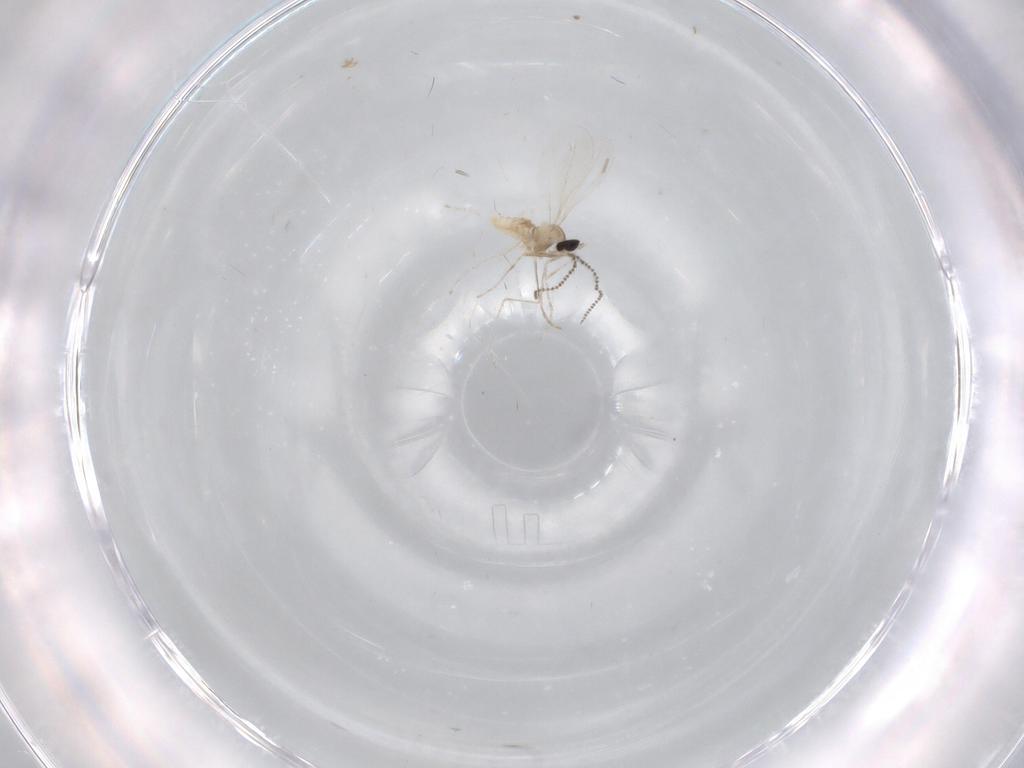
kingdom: Animalia
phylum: Arthropoda
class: Insecta
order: Diptera
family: Cecidomyiidae
